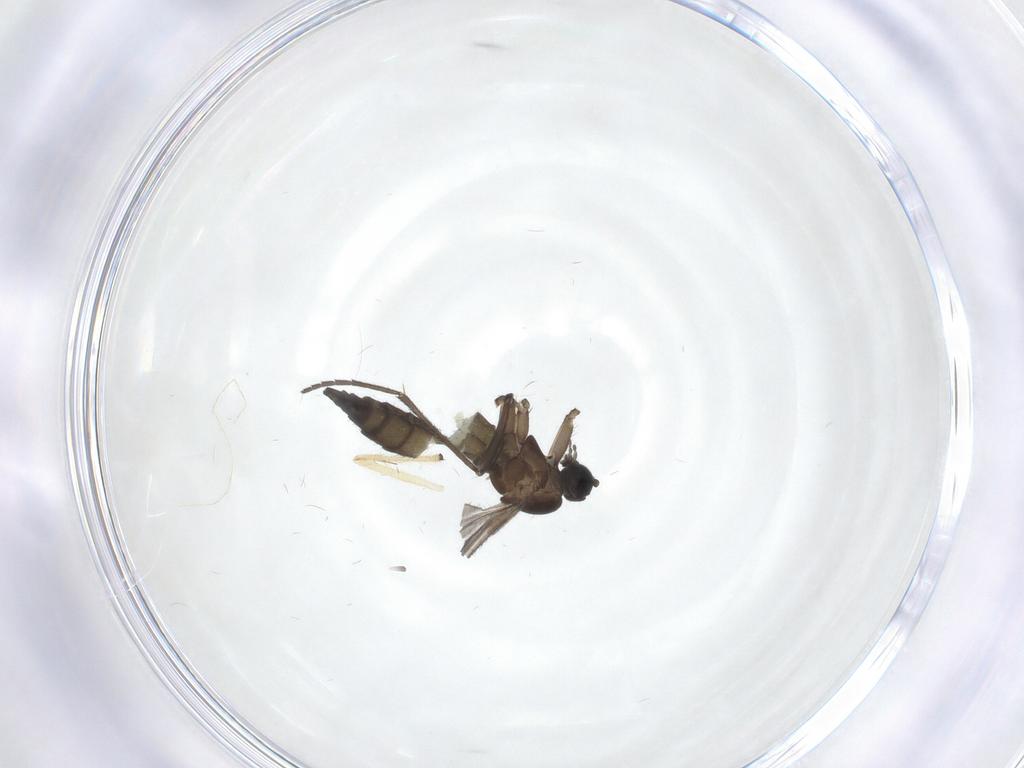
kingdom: Animalia
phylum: Arthropoda
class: Insecta
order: Diptera
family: Sciaridae
